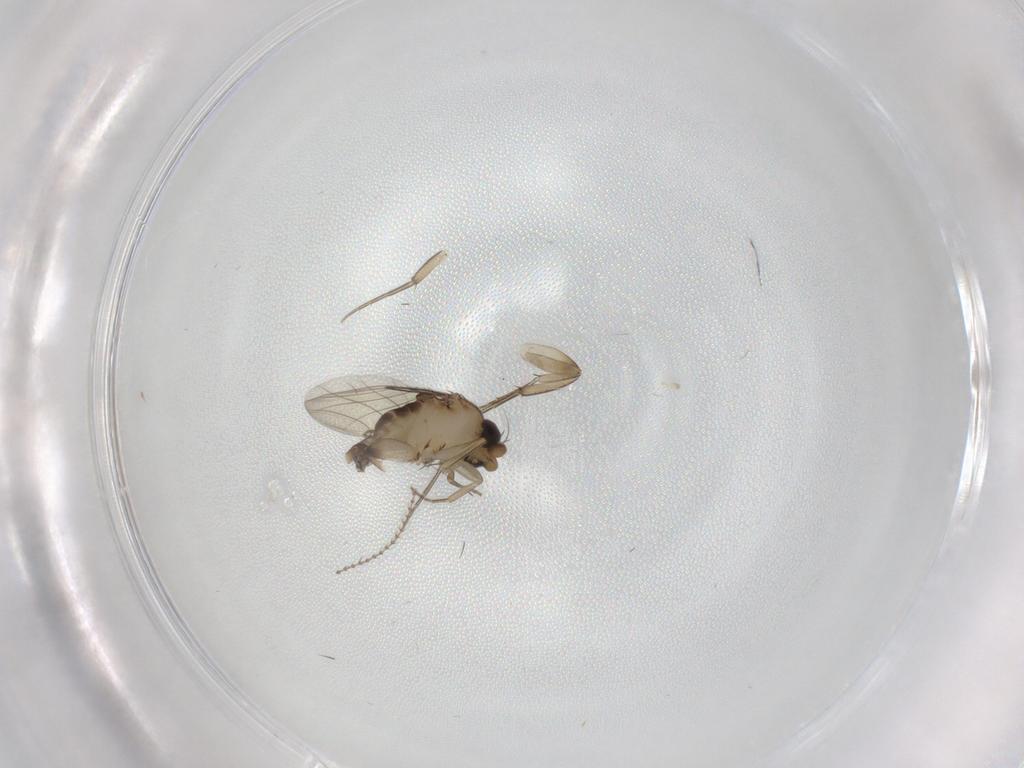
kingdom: Animalia
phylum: Arthropoda
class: Insecta
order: Diptera
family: Phoridae
